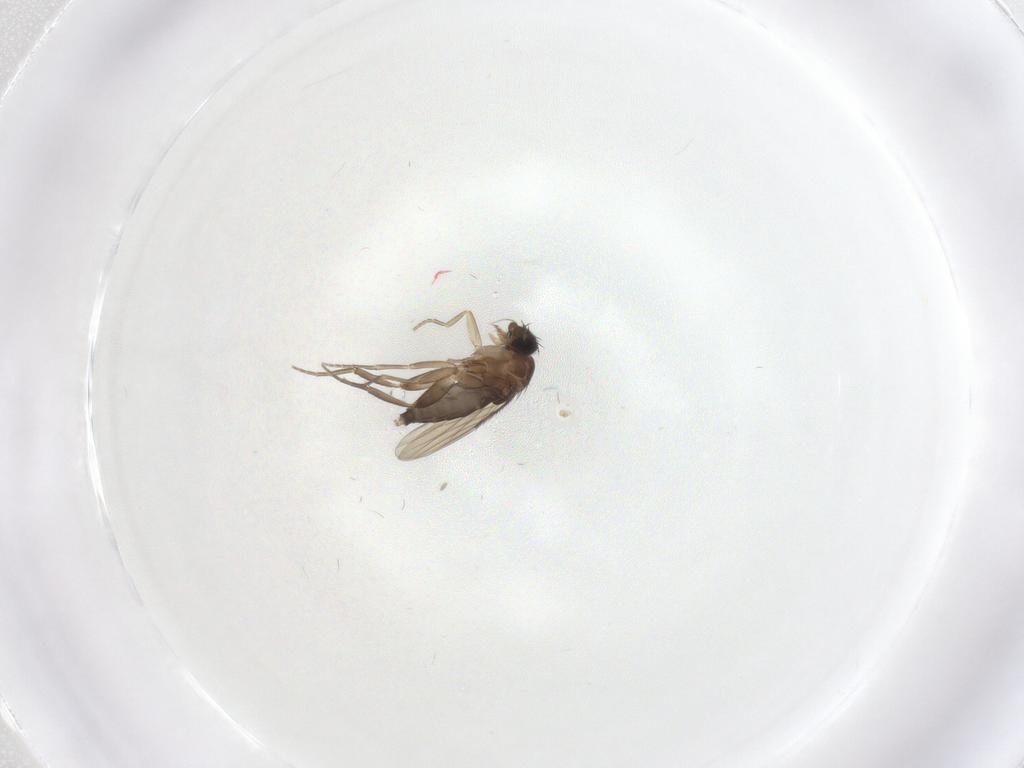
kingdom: Animalia
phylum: Arthropoda
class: Insecta
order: Diptera
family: Phoridae
